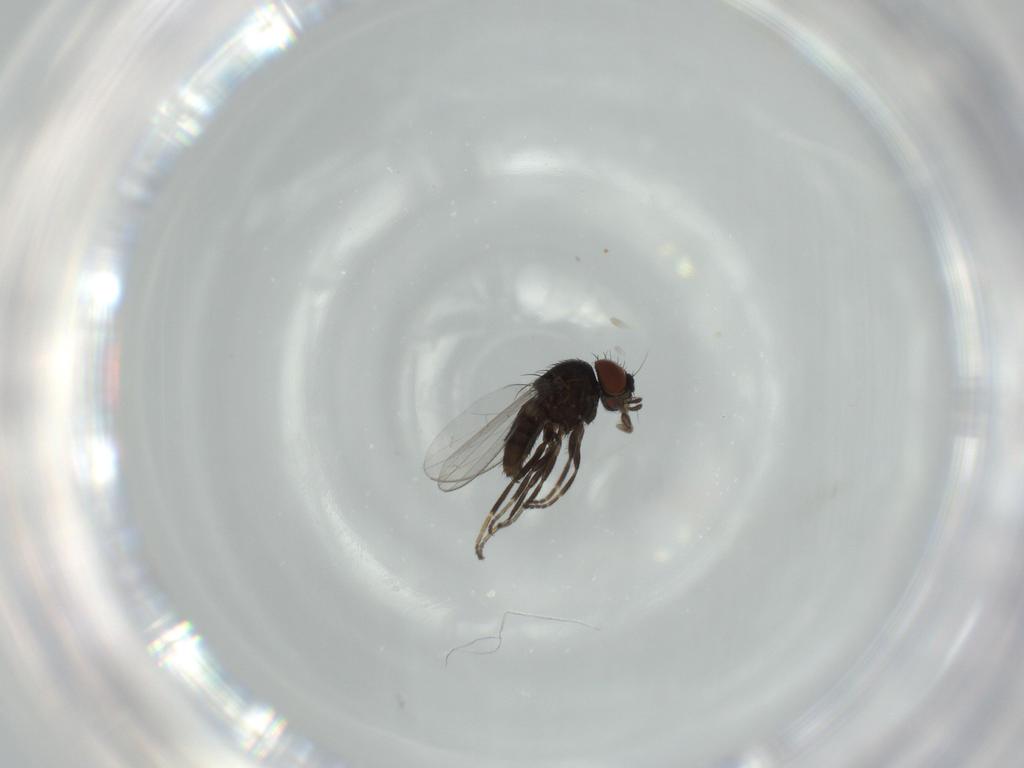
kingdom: Animalia
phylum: Arthropoda
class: Insecta
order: Diptera
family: Milichiidae
